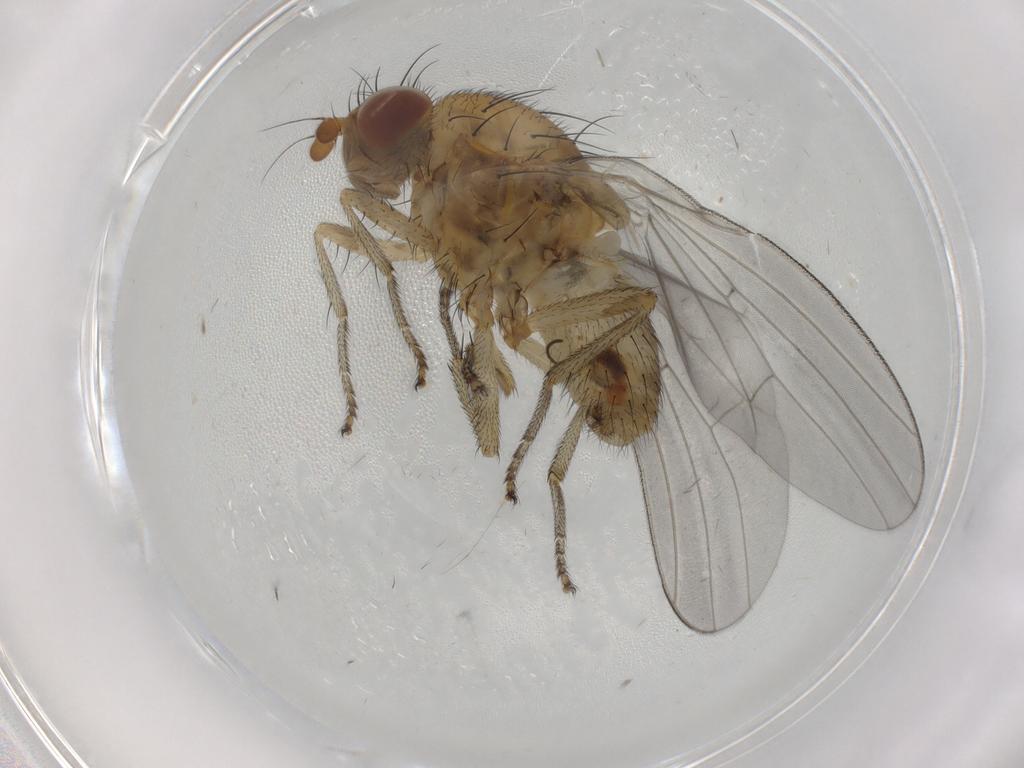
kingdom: Animalia
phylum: Arthropoda
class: Insecta
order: Diptera
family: Lauxaniidae
